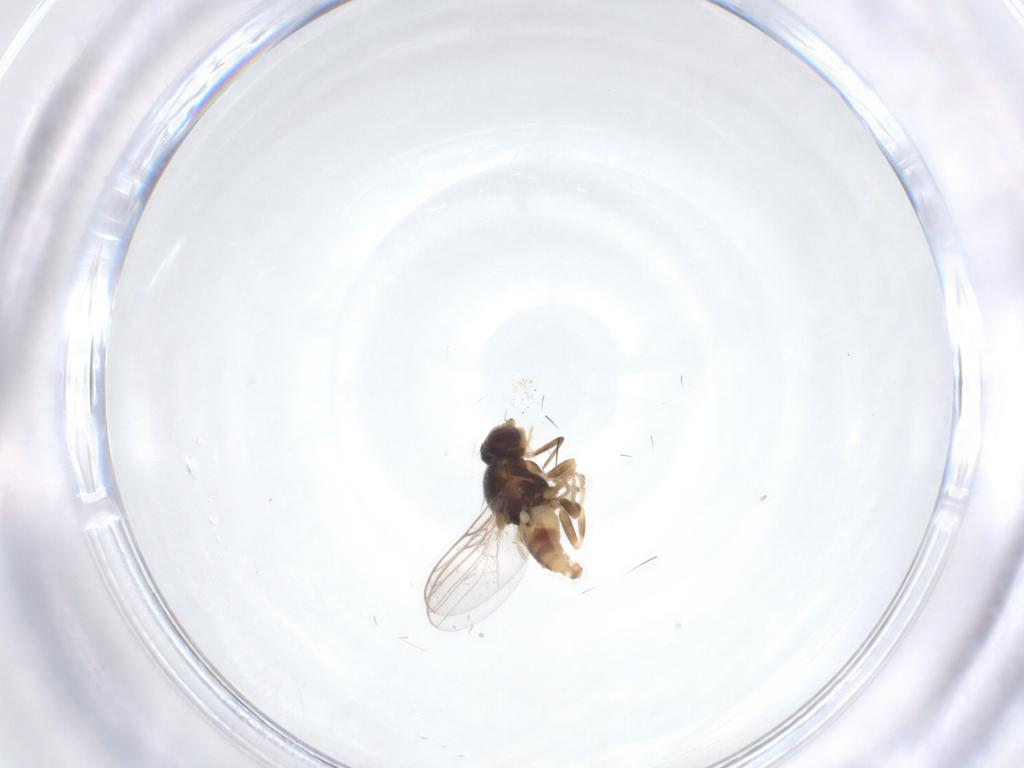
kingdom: Animalia
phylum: Arthropoda
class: Insecta
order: Diptera
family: Chloropidae
